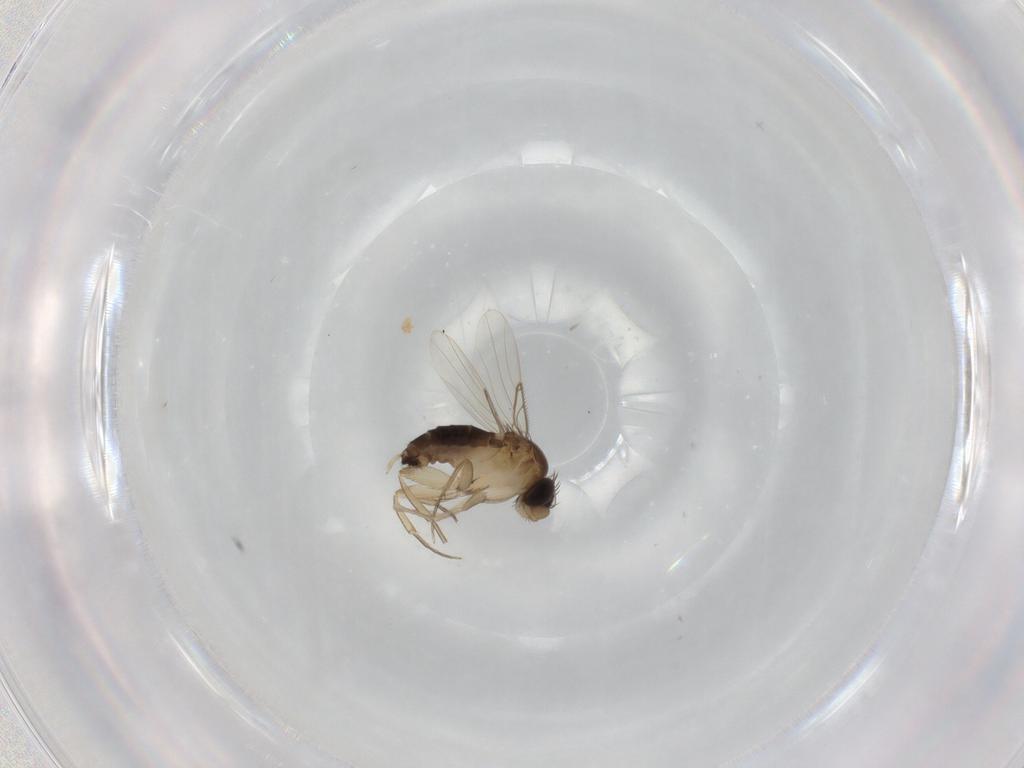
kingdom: Animalia
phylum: Arthropoda
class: Insecta
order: Diptera
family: Phoridae
